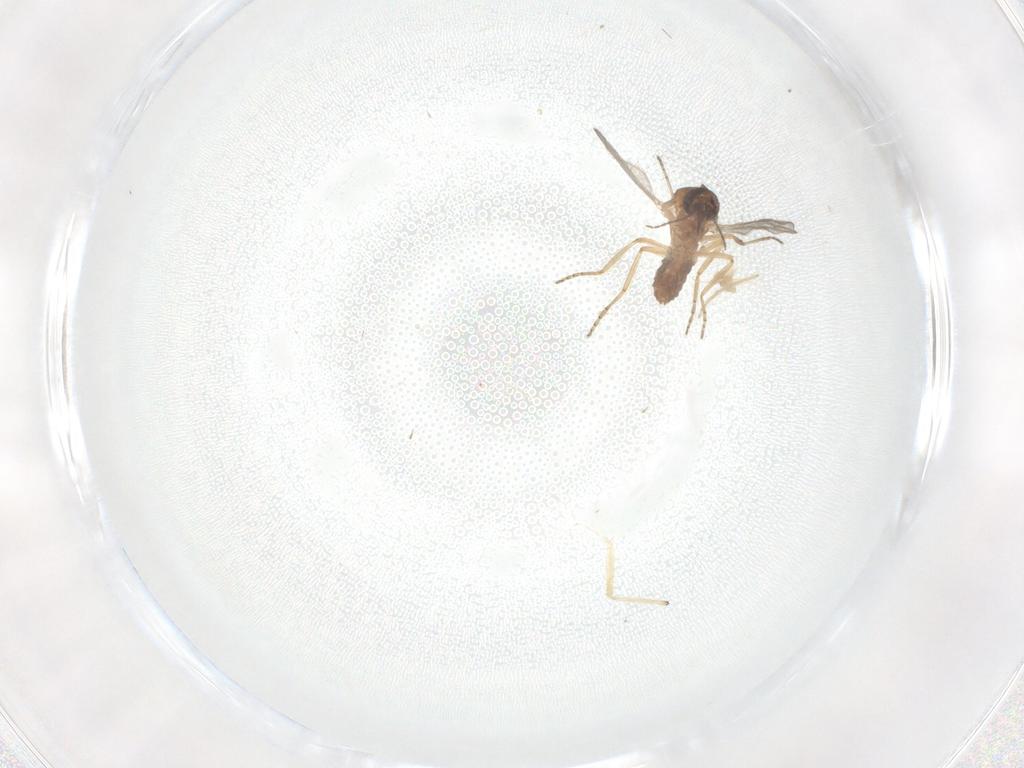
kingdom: Animalia
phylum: Arthropoda
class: Insecta
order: Diptera
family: Ceratopogonidae
